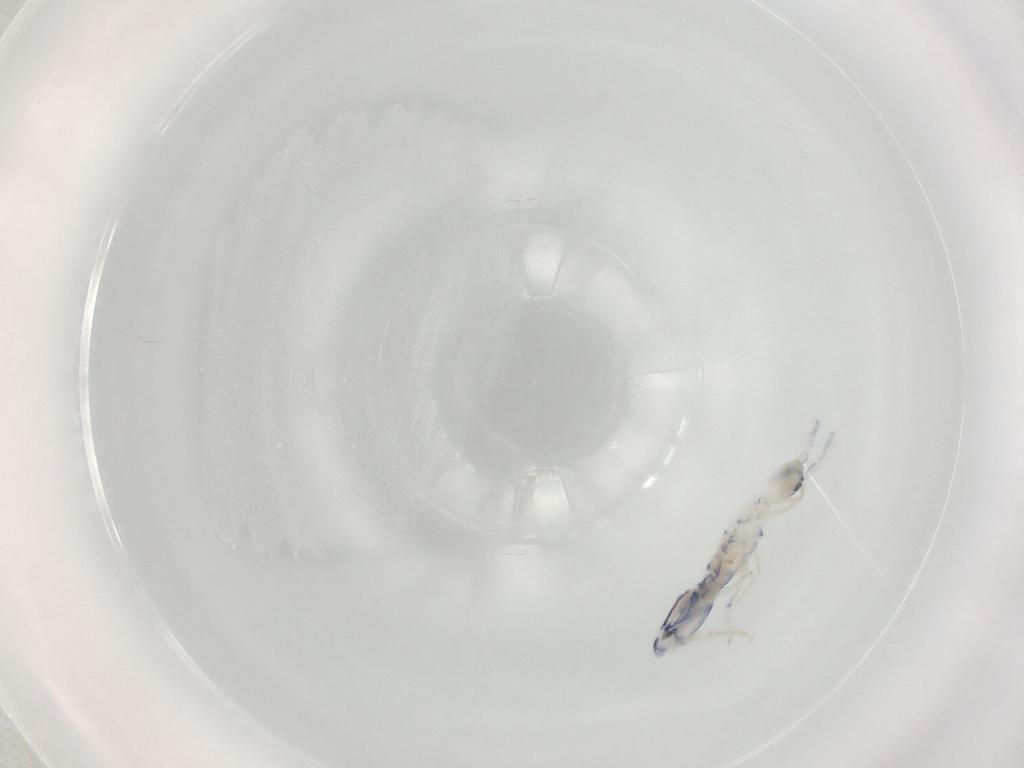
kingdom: Animalia
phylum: Arthropoda
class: Collembola
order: Entomobryomorpha
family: Entomobryidae
